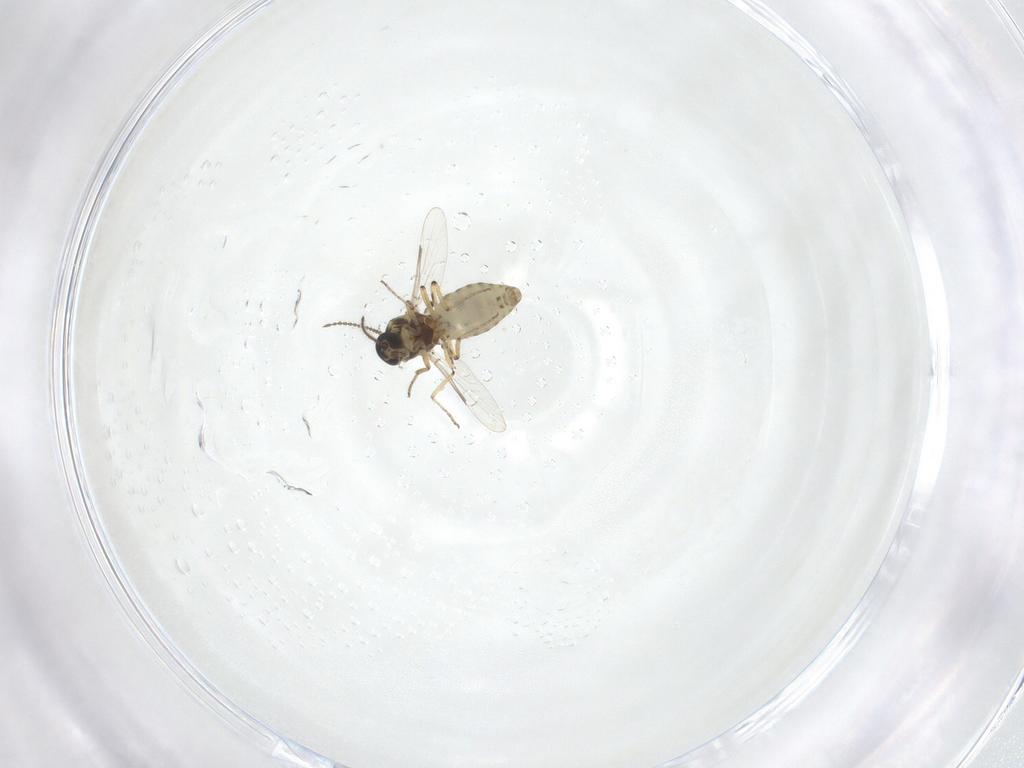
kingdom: Animalia
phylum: Arthropoda
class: Insecta
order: Diptera
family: Ceratopogonidae
